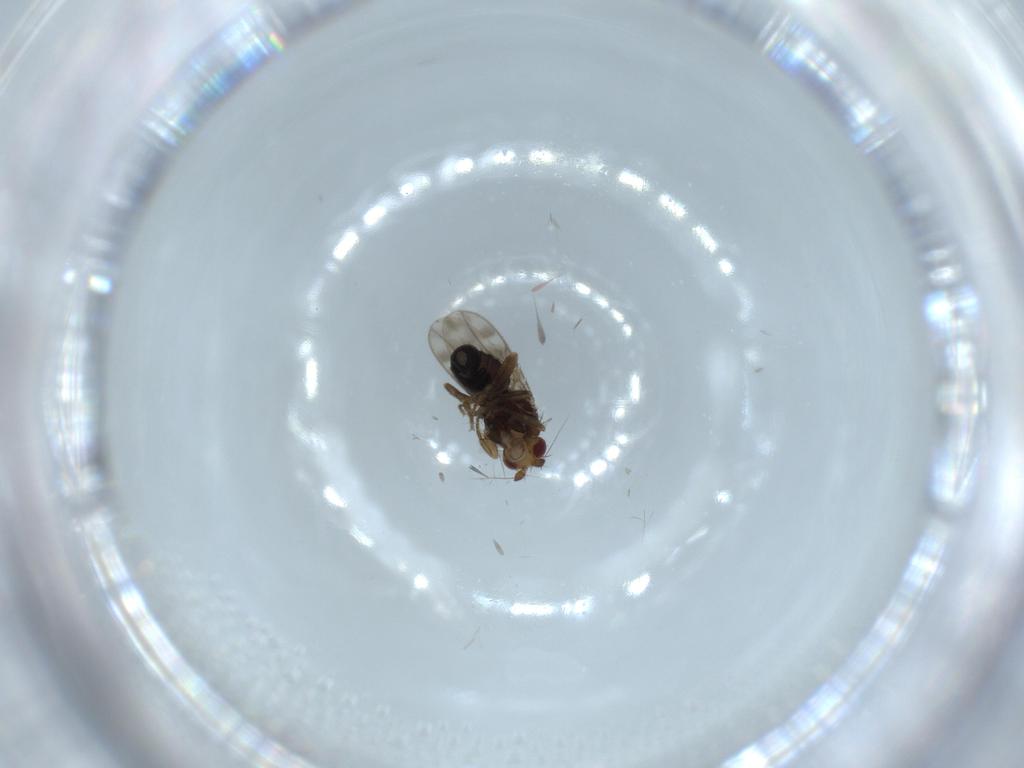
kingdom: Animalia
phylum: Arthropoda
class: Insecta
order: Diptera
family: Sphaeroceridae
